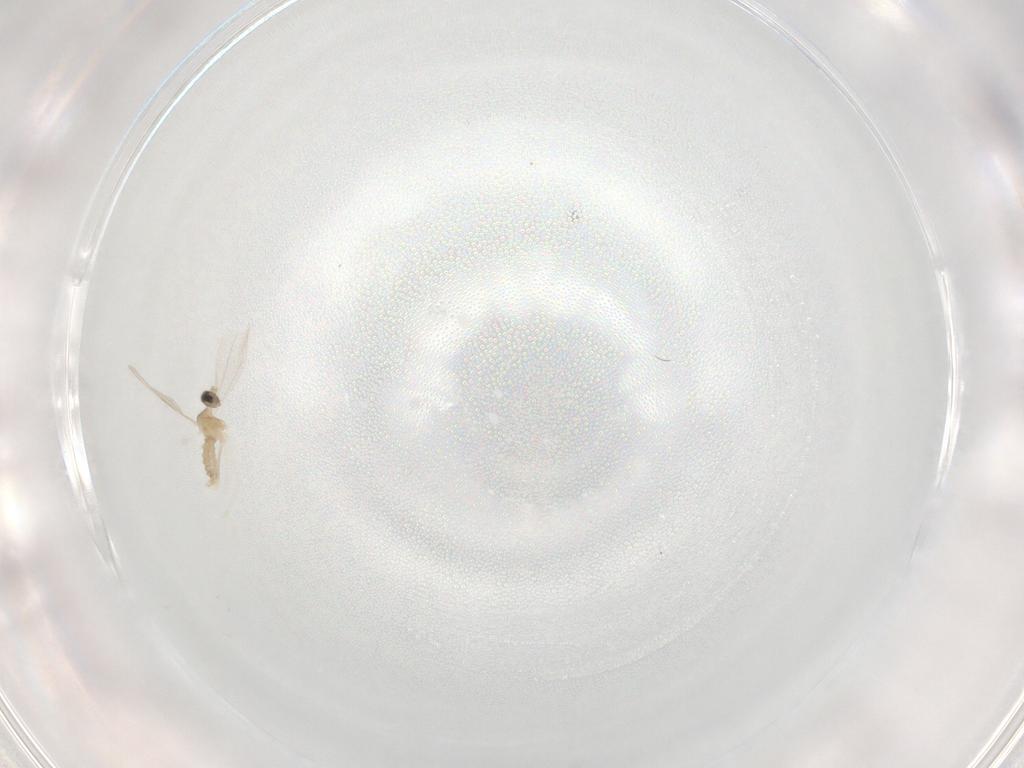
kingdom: Animalia
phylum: Arthropoda
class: Insecta
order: Diptera
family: Cecidomyiidae
